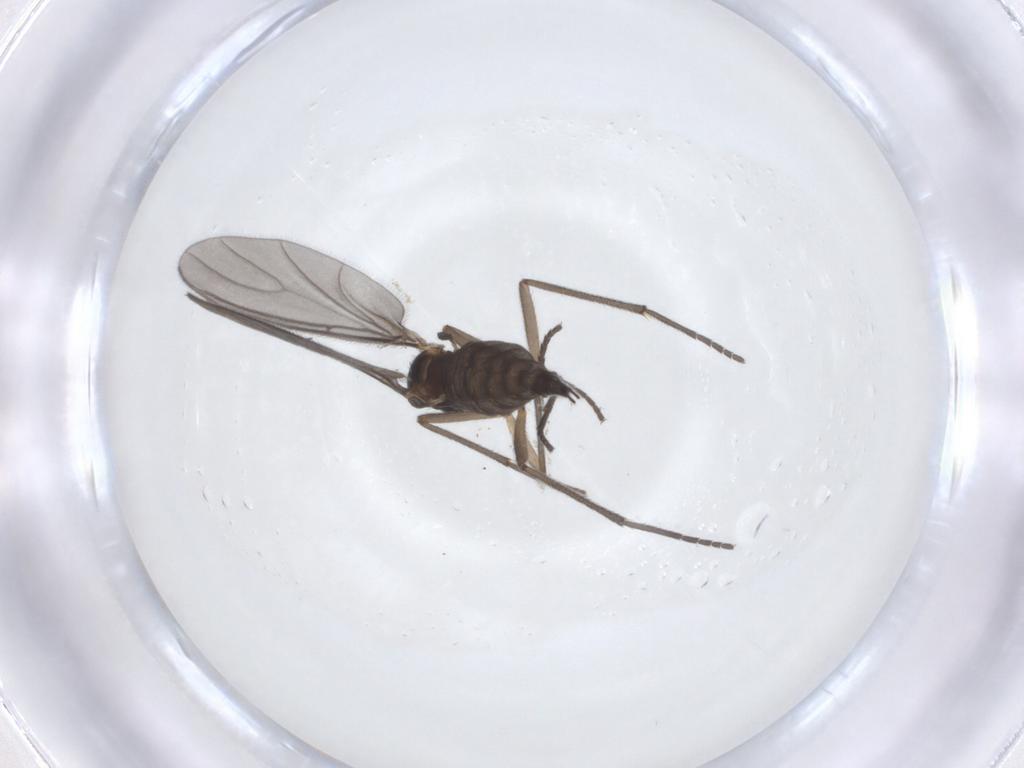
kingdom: Animalia
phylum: Arthropoda
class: Insecta
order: Diptera
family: Sciaridae
